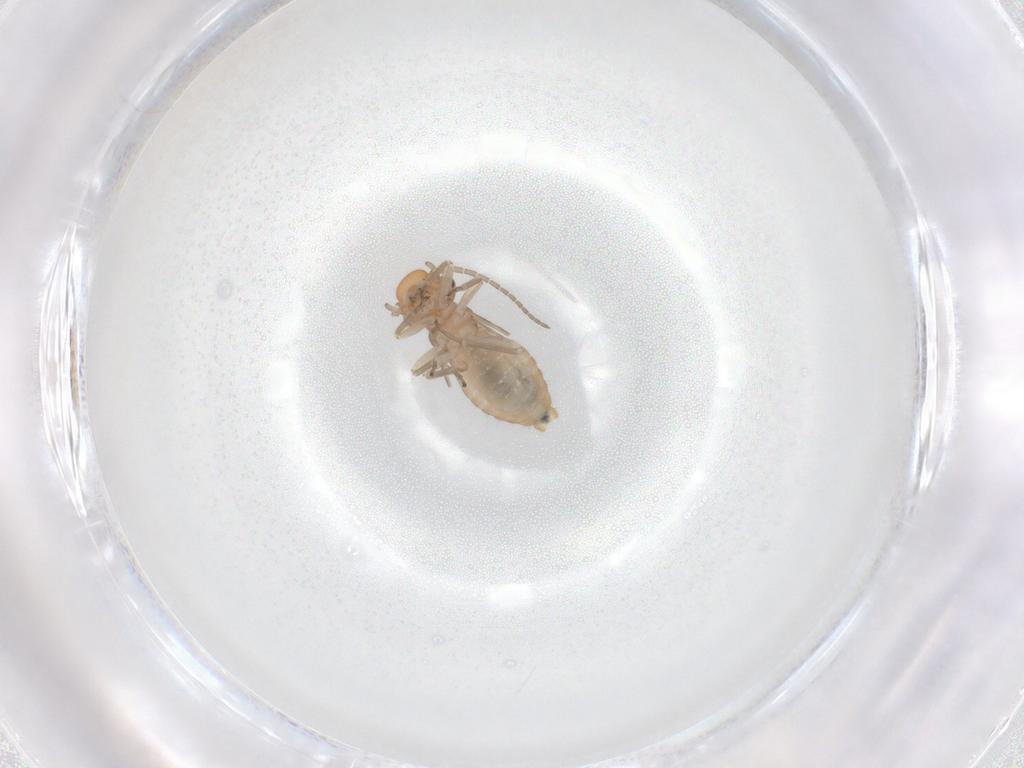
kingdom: Animalia
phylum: Arthropoda
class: Insecta
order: Psocodea
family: Caeciliusidae
